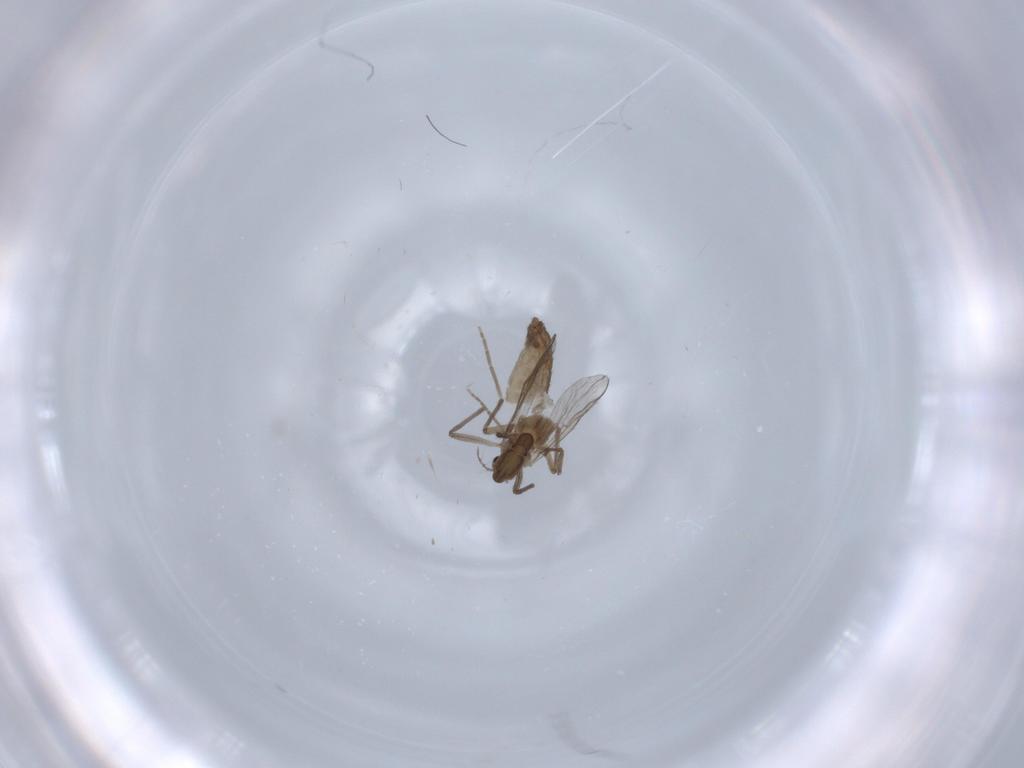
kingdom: Animalia
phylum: Arthropoda
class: Insecta
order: Diptera
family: Chironomidae
